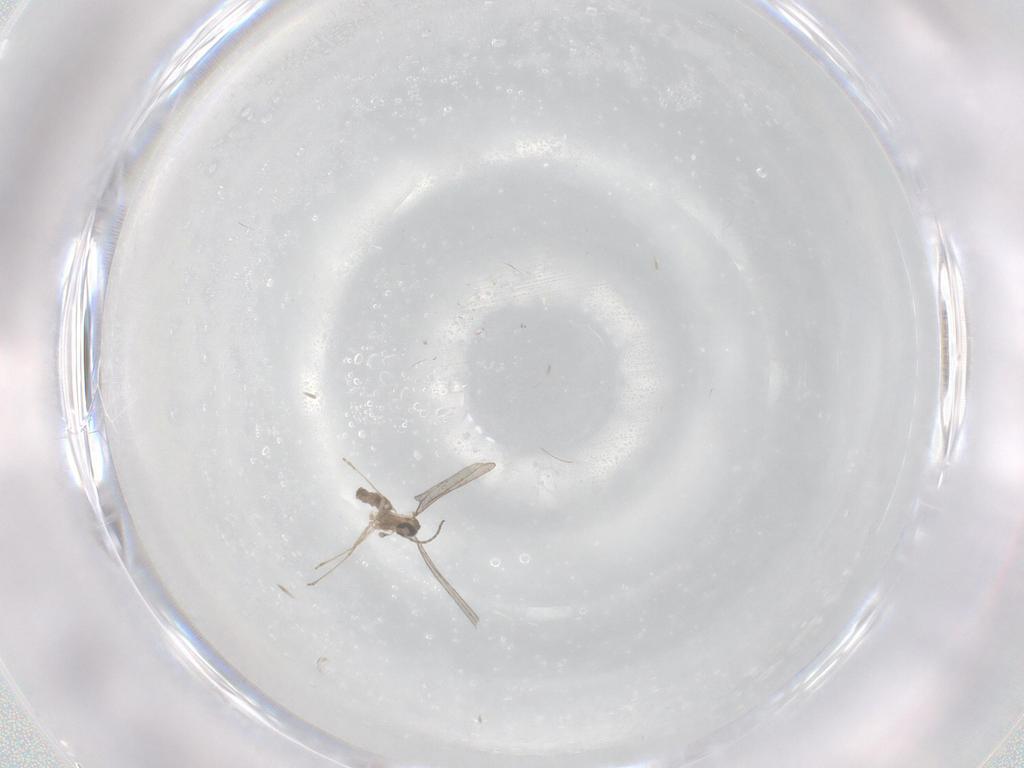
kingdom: Animalia
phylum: Arthropoda
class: Insecta
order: Diptera
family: Cecidomyiidae
